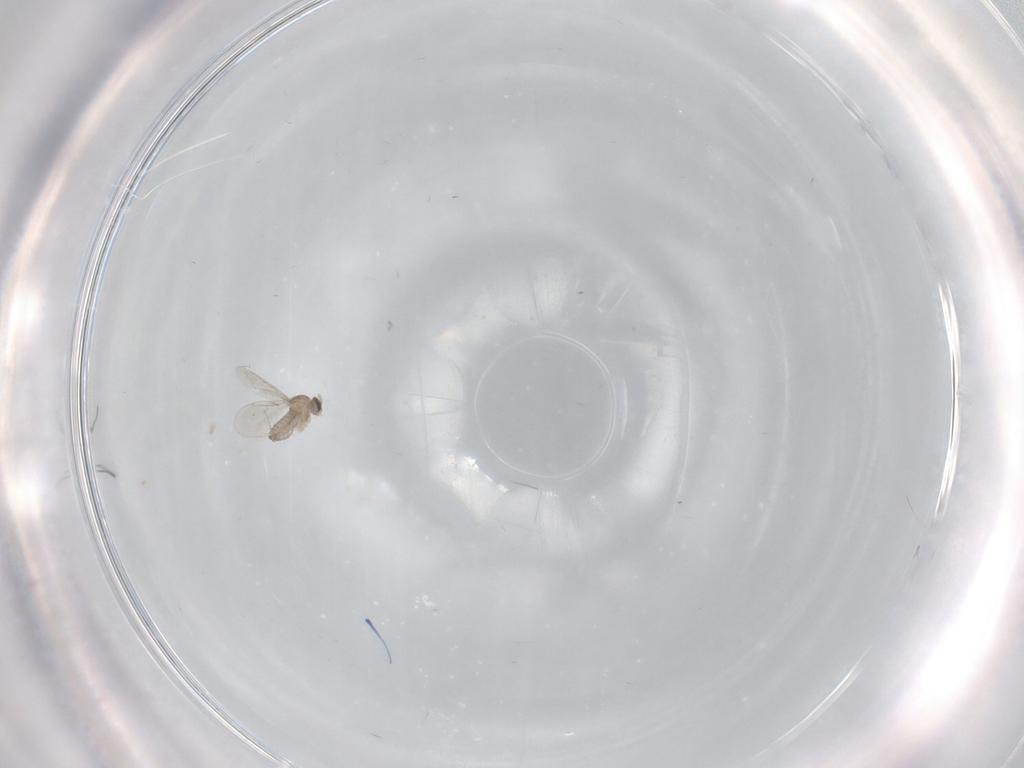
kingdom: Animalia
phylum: Arthropoda
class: Insecta
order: Diptera
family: Cecidomyiidae
